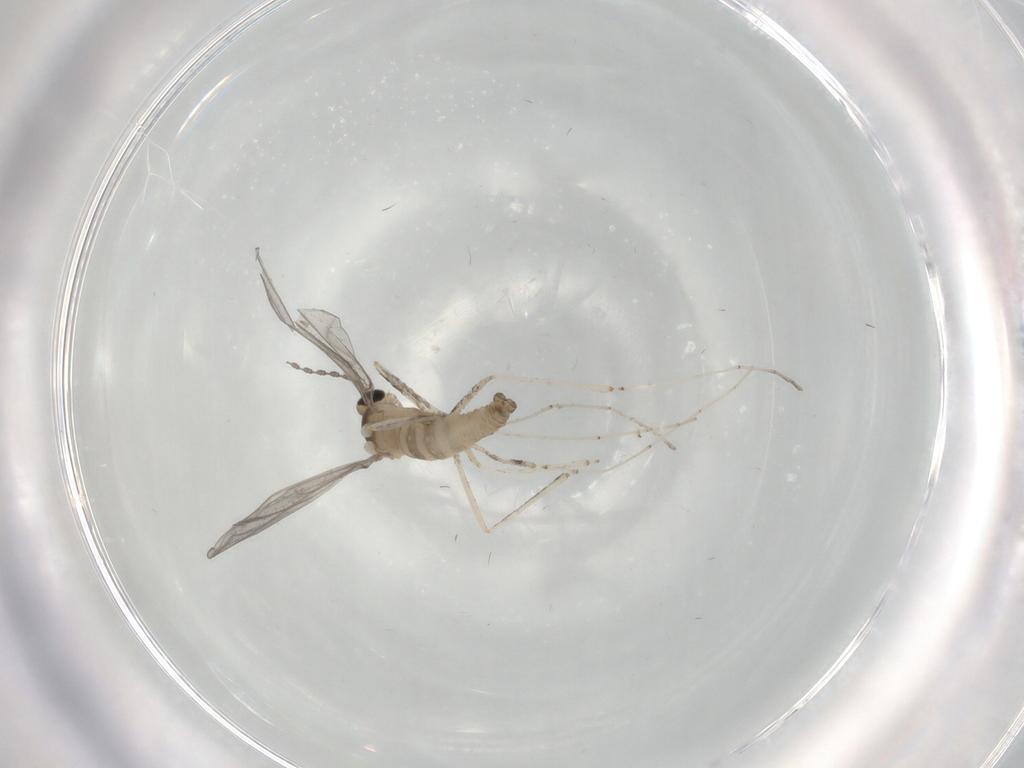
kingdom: Animalia
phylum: Arthropoda
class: Insecta
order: Diptera
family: Cecidomyiidae
